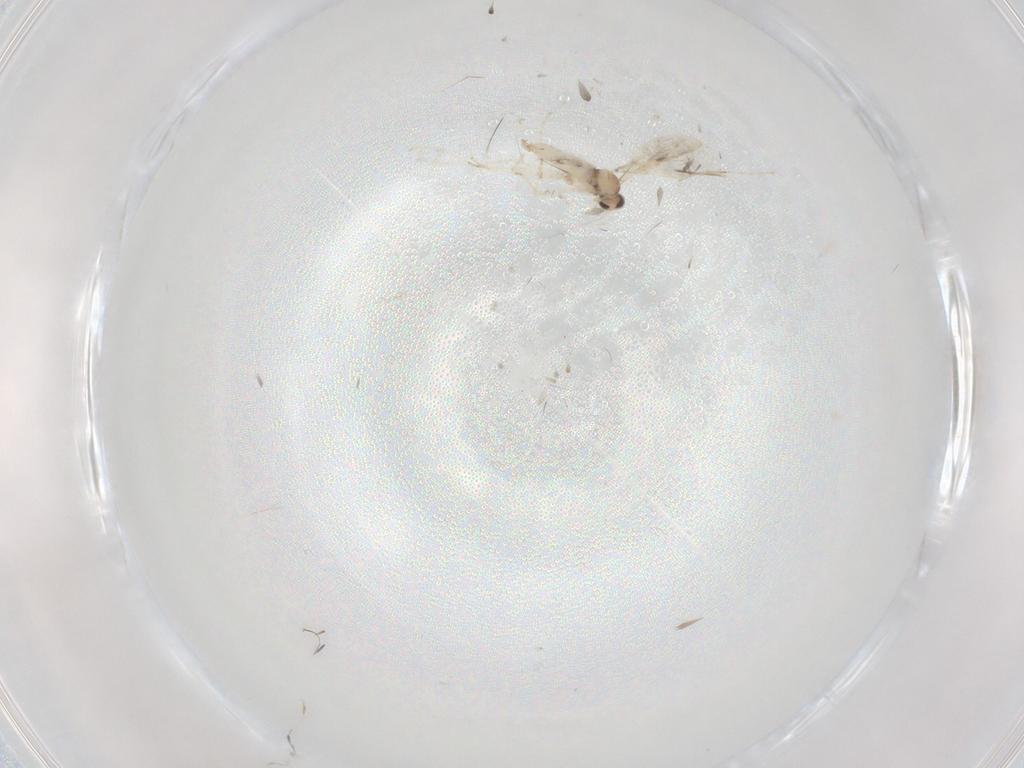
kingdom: Animalia
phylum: Arthropoda
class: Insecta
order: Diptera
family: Cecidomyiidae
